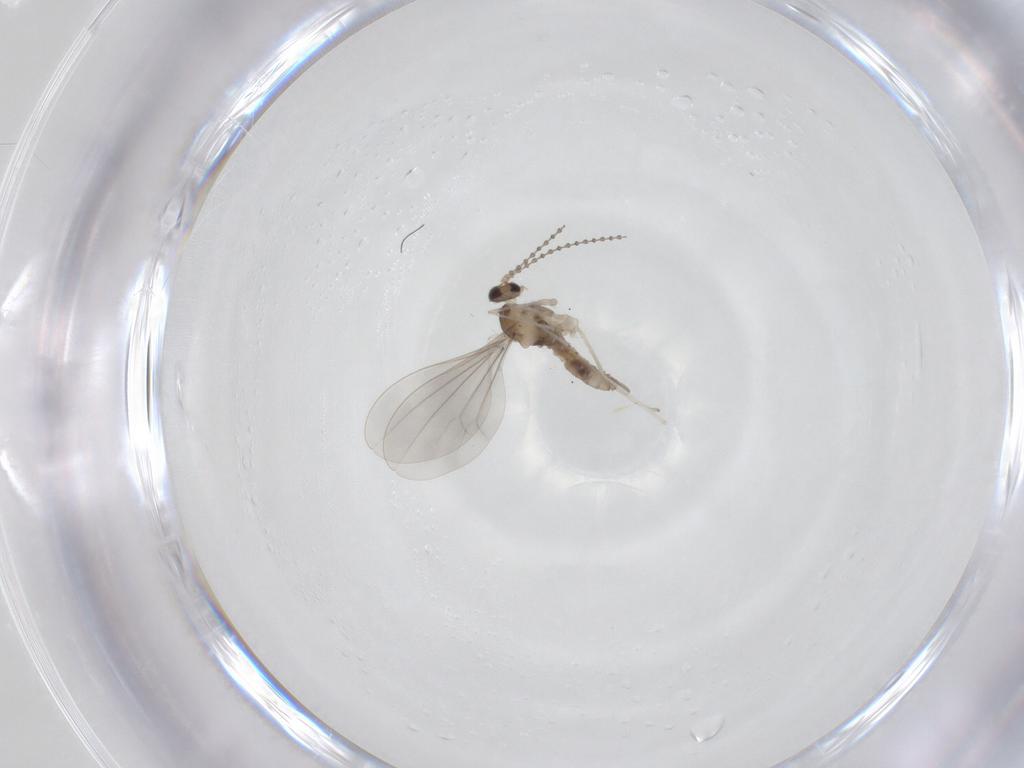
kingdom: Animalia
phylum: Arthropoda
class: Insecta
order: Diptera
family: Chironomidae
